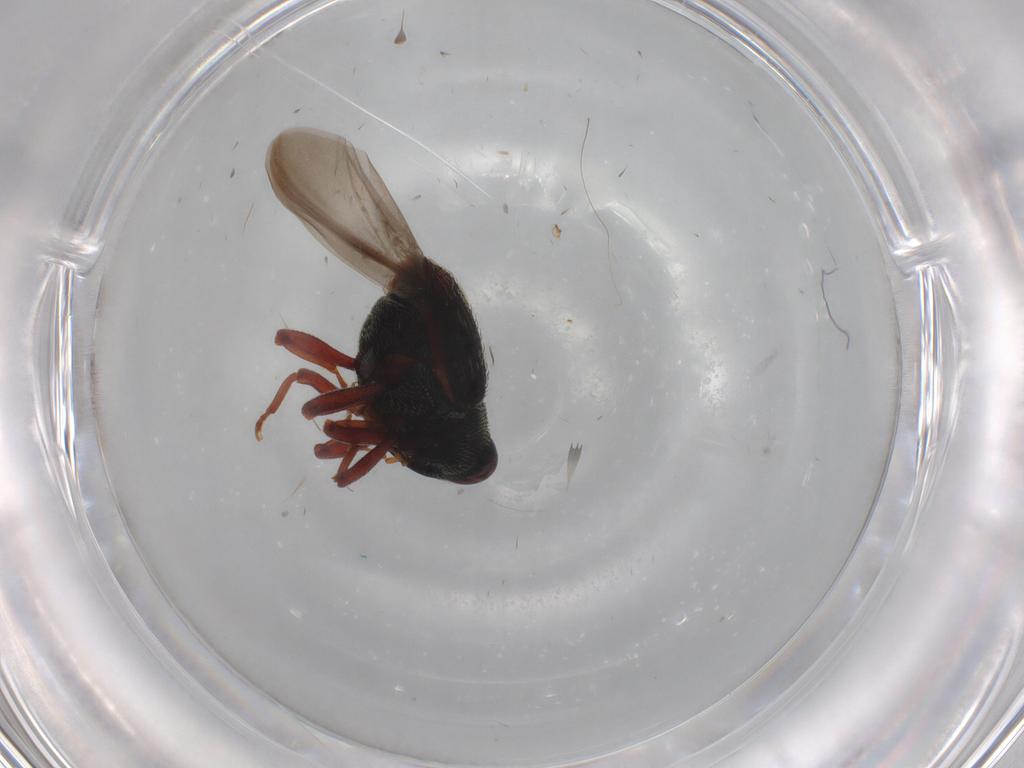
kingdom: Animalia
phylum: Arthropoda
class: Insecta
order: Coleoptera
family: Curculionidae
